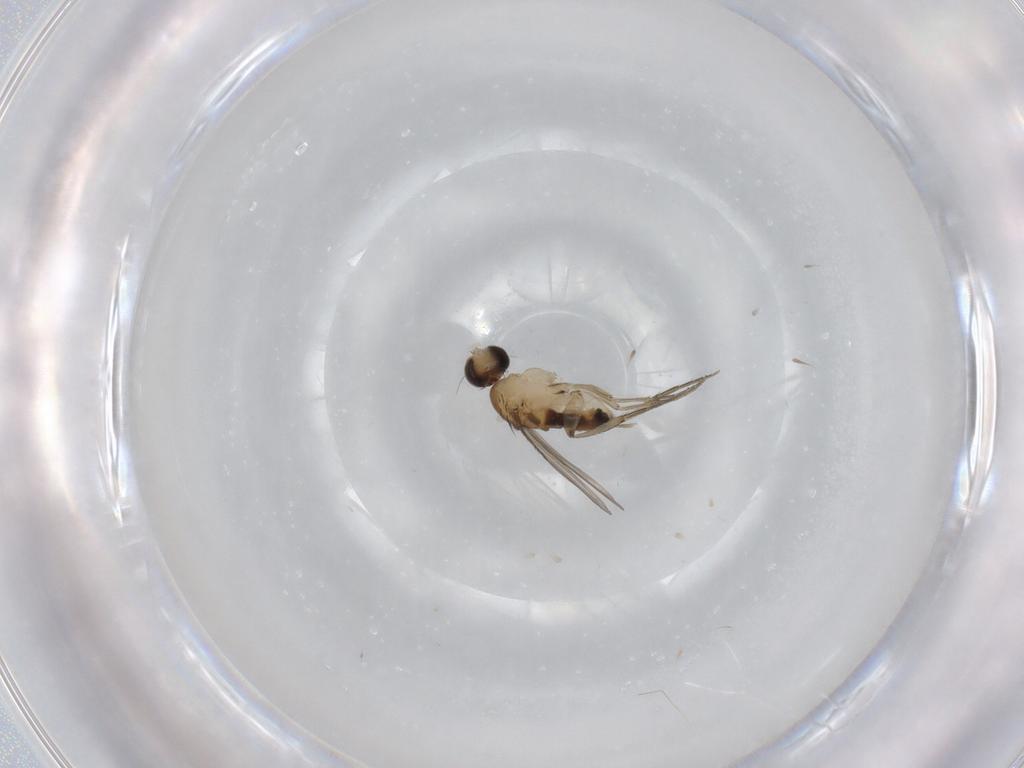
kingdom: Animalia
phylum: Arthropoda
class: Insecta
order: Diptera
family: Phoridae
